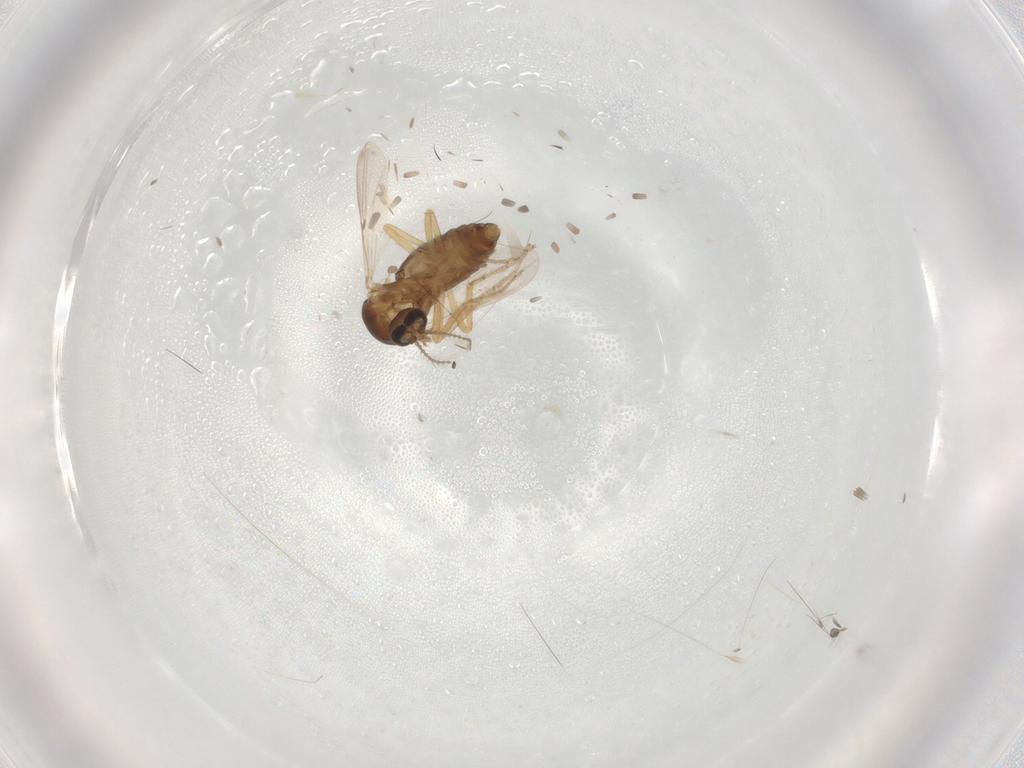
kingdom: Animalia
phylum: Arthropoda
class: Insecta
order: Diptera
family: Ceratopogonidae
